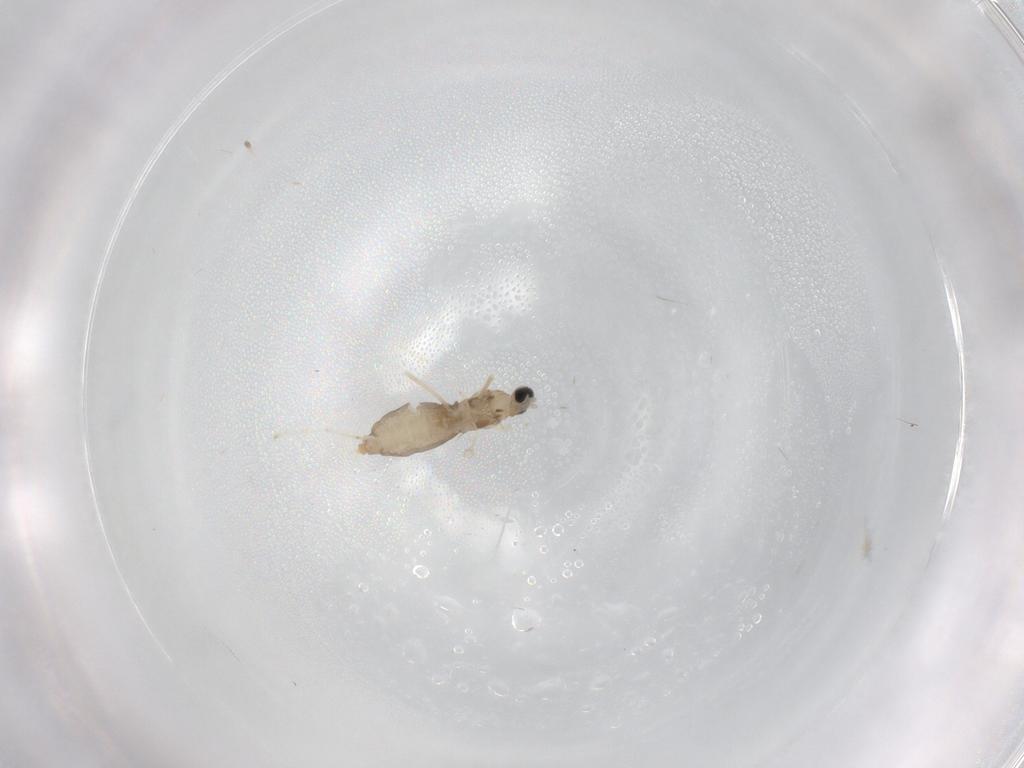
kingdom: Animalia
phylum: Arthropoda
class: Insecta
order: Diptera
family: Cecidomyiidae
